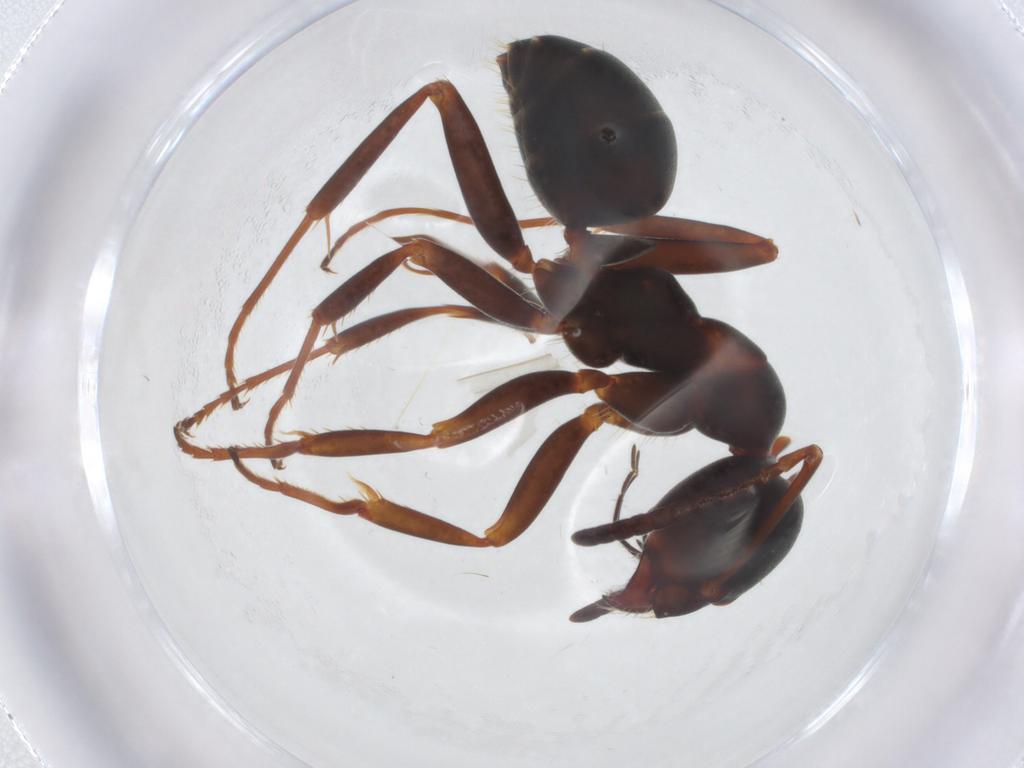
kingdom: Animalia
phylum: Arthropoda
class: Insecta
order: Hymenoptera
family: Formicidae
